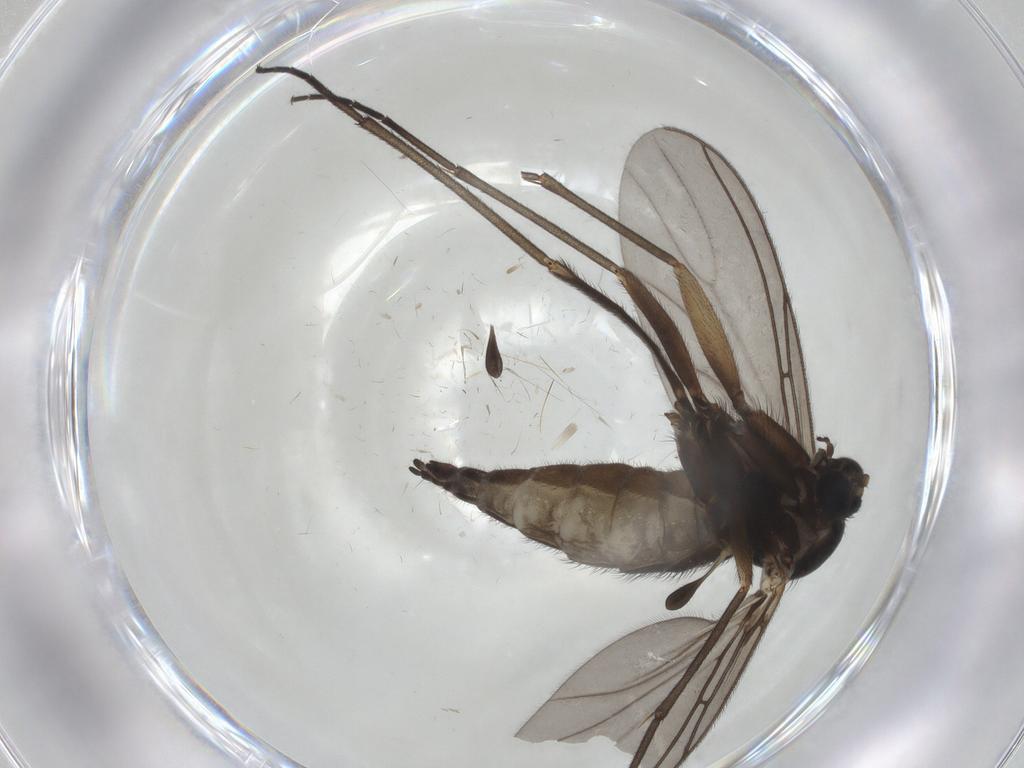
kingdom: Animalia
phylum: Arthropoda
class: Insecta
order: Diptera
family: Sciaridae
